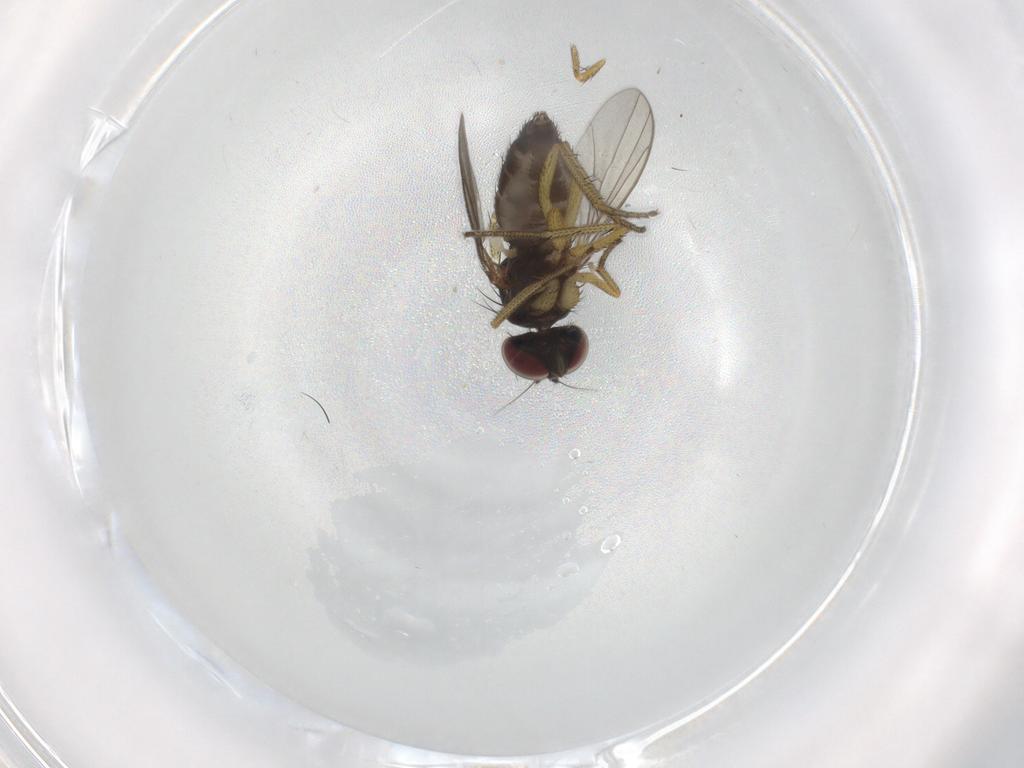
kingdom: Animalia
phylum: Arthropoda
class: Insecta
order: Diptera
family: Dolichopodidae
